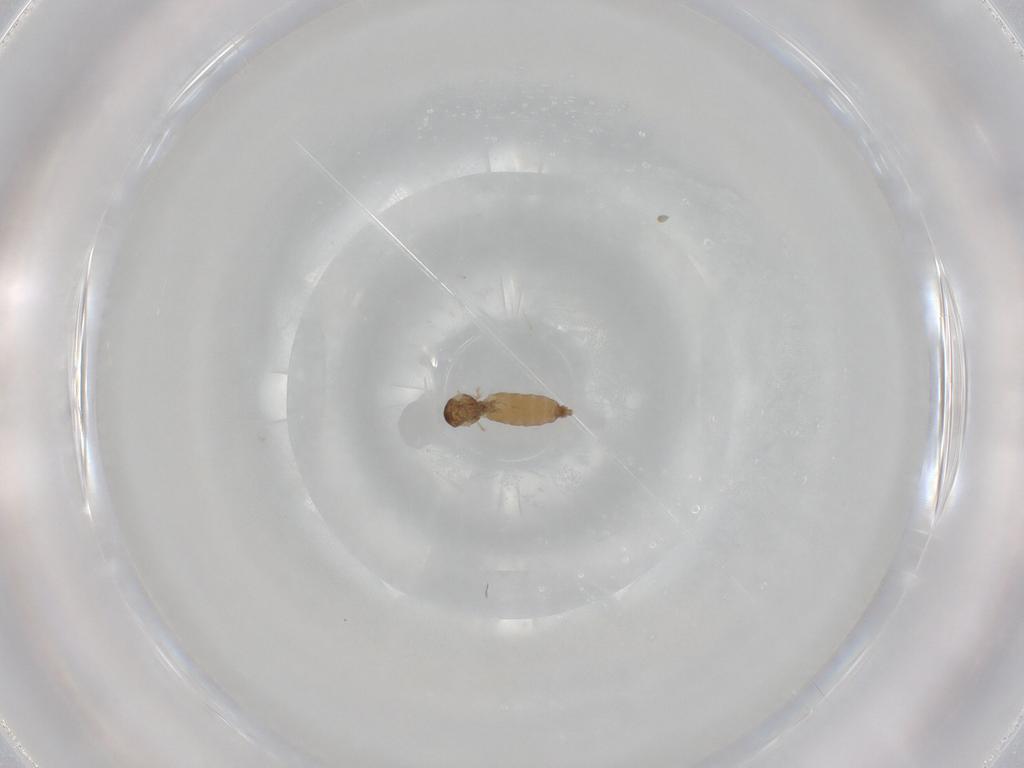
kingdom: Animalia
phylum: Arthropoda
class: Insecta
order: Diptera
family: Cecidomyiidae
